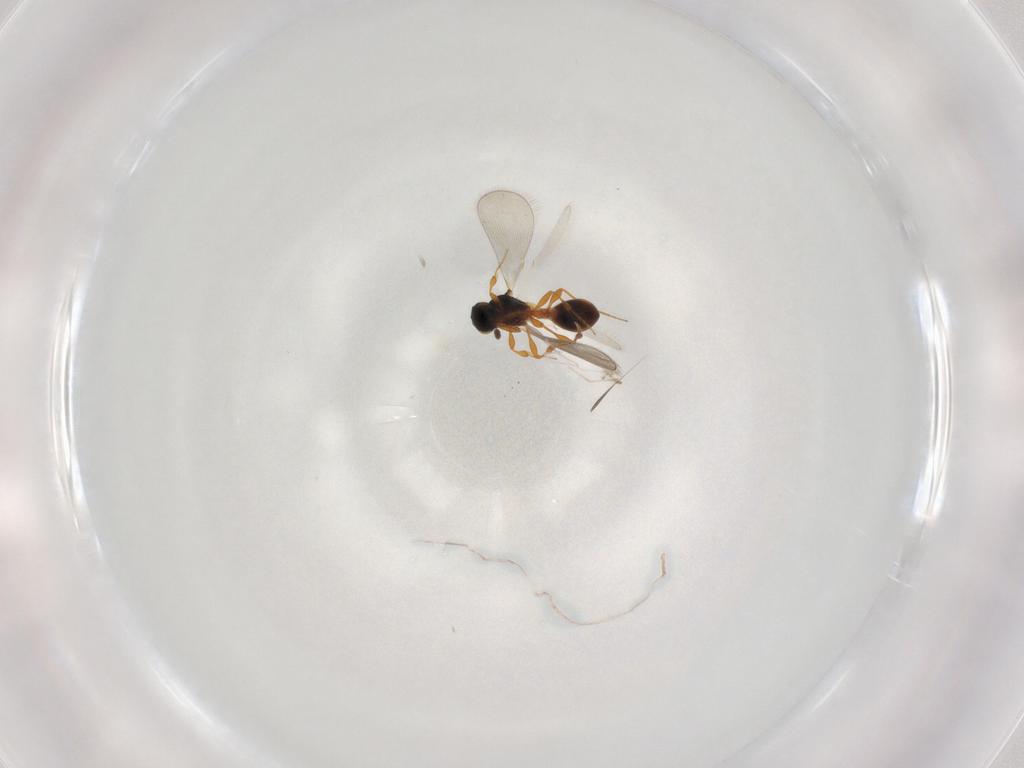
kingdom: Animalia
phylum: Arthropoda
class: Insecta
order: Hymenoptera
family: Platygastridae
